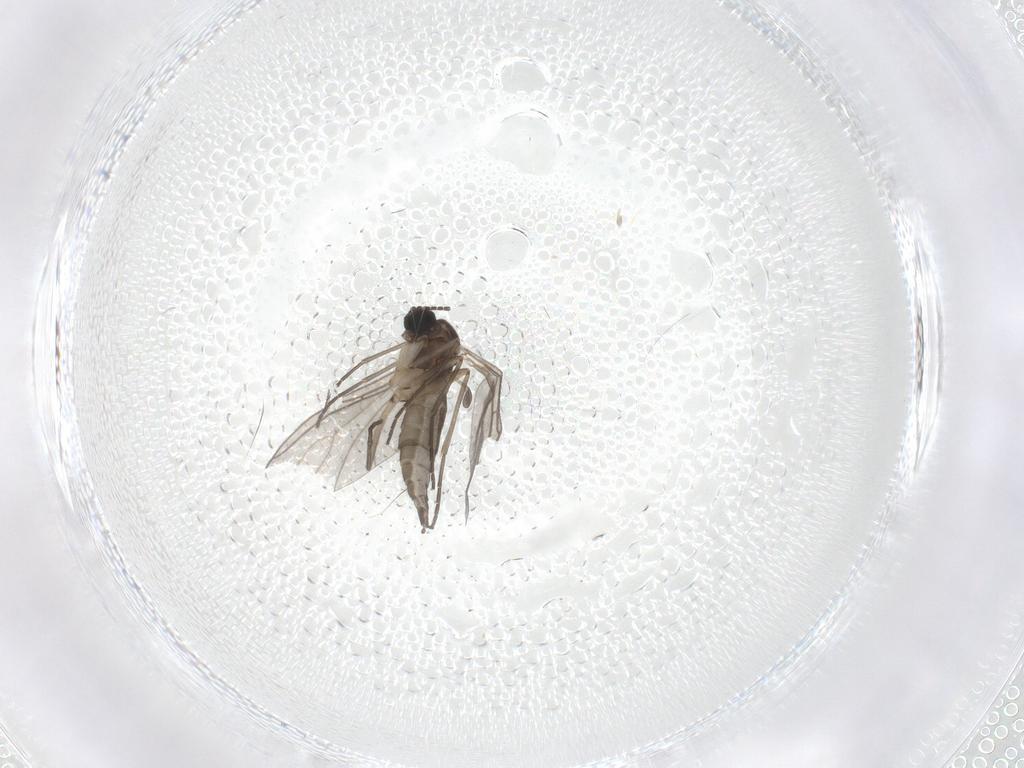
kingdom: Animalia
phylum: Arthropoda
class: Insecta
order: Diptera
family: Sciaridae
